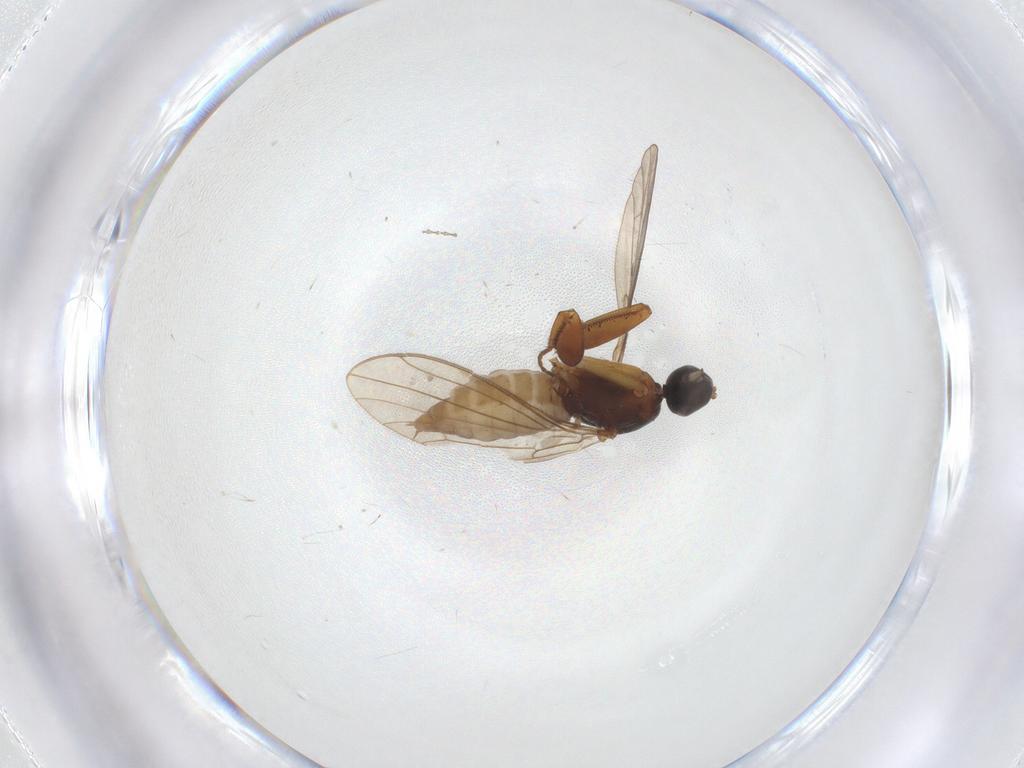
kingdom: Animalia
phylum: Arthropoda
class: Insecta
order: Diptera
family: Empididae
